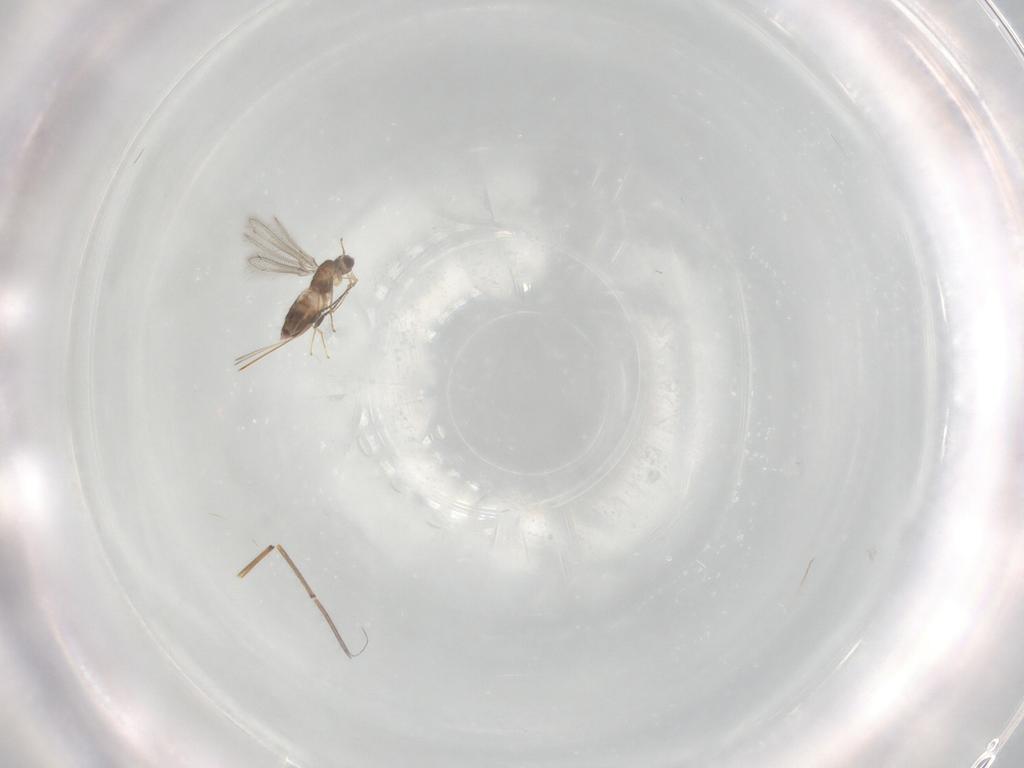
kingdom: Animalia
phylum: Arthropoda
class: Insecta
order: Hymenoptera
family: Mymaridae
